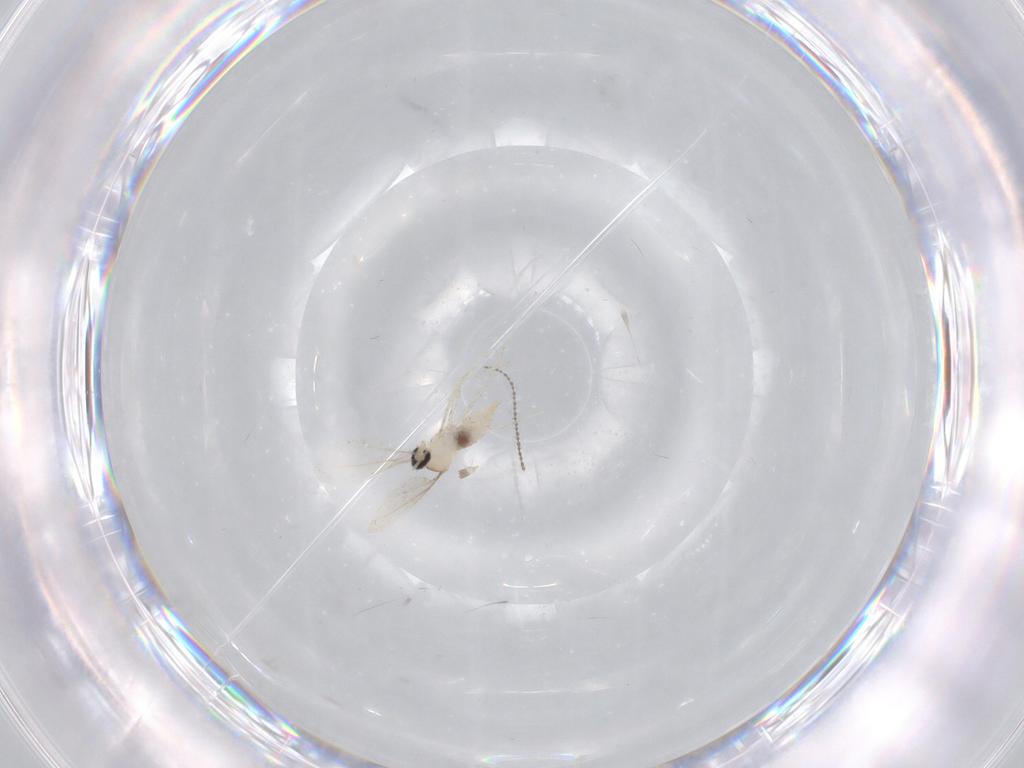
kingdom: Animalia
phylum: Arthropoda
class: Insecta
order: Diptera
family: Cecidomyiidae
